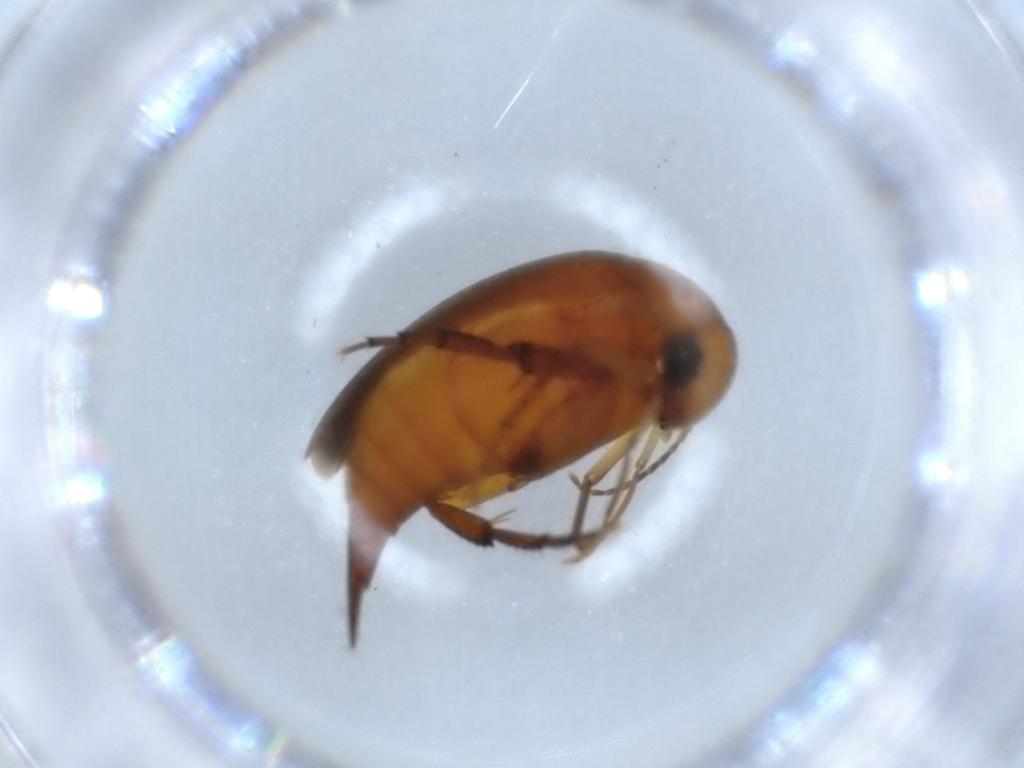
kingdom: Animalia
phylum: Arthropoda
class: Insecta
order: Coleoptera
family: Mordellidae
